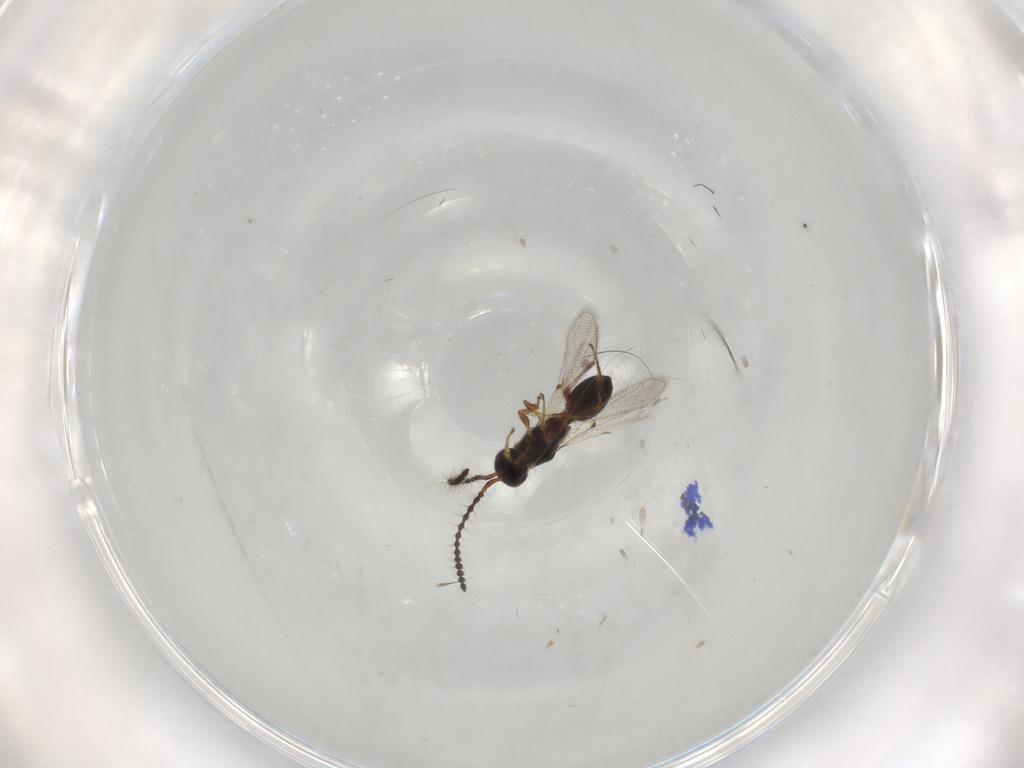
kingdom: Animalia
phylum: Arthropoda
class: Insecta
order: Hymenoptera
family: Diapriidae
